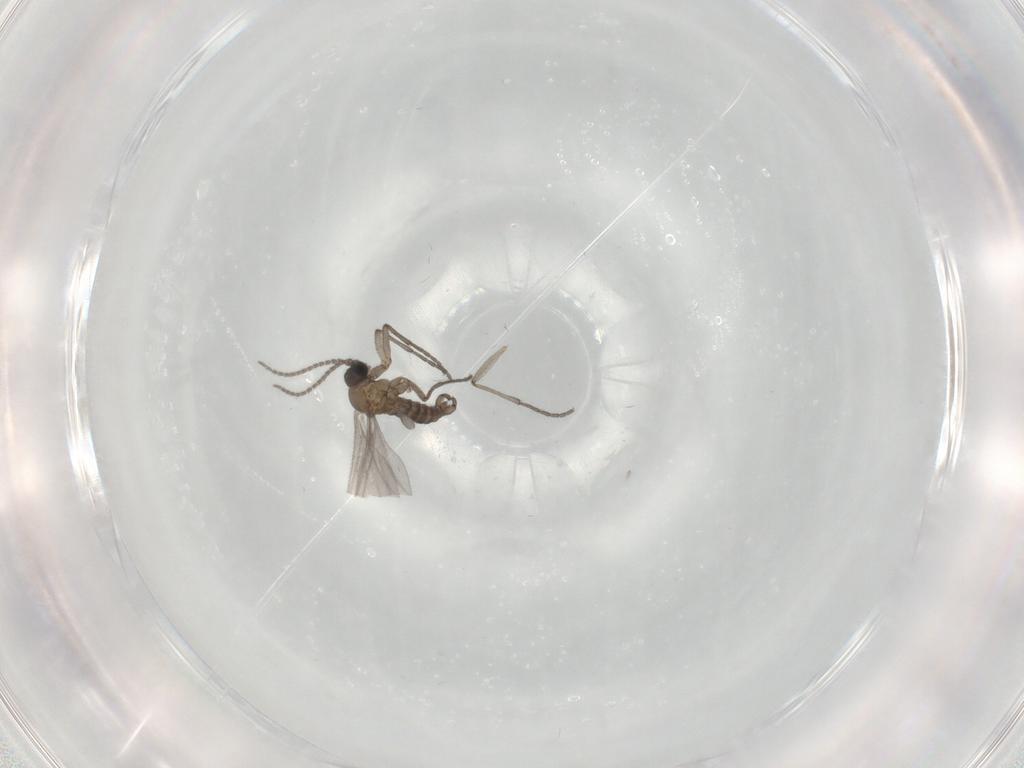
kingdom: Animalia
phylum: Arthropoda
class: Insecta
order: Diptera
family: Sciaridae
